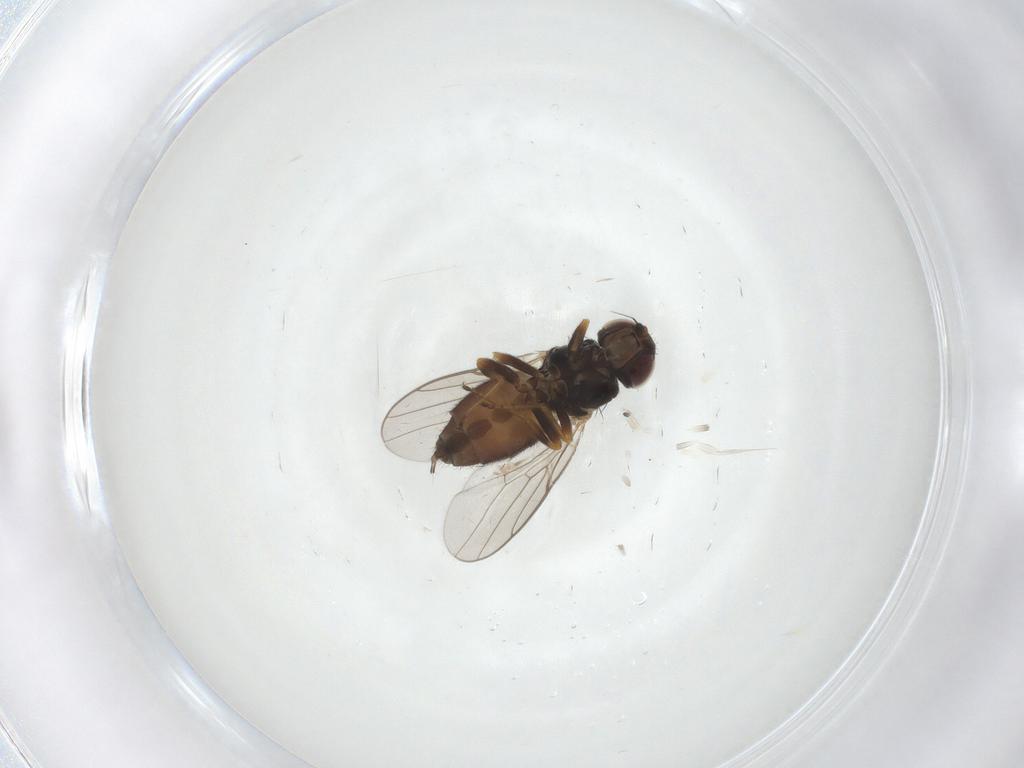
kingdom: Animalia
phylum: Arthropoda
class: Insecta
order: Diptera
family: Chloropidae
